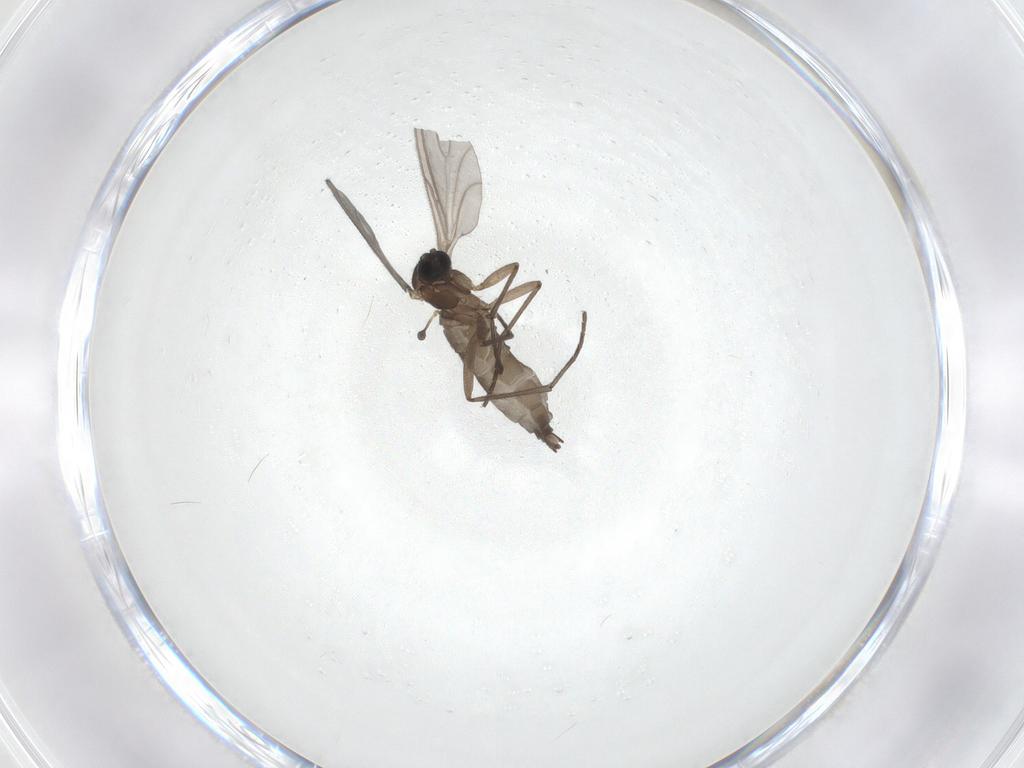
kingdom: Animalia
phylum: Arthropoda
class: Insecta
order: Diptera
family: Sciaridae
